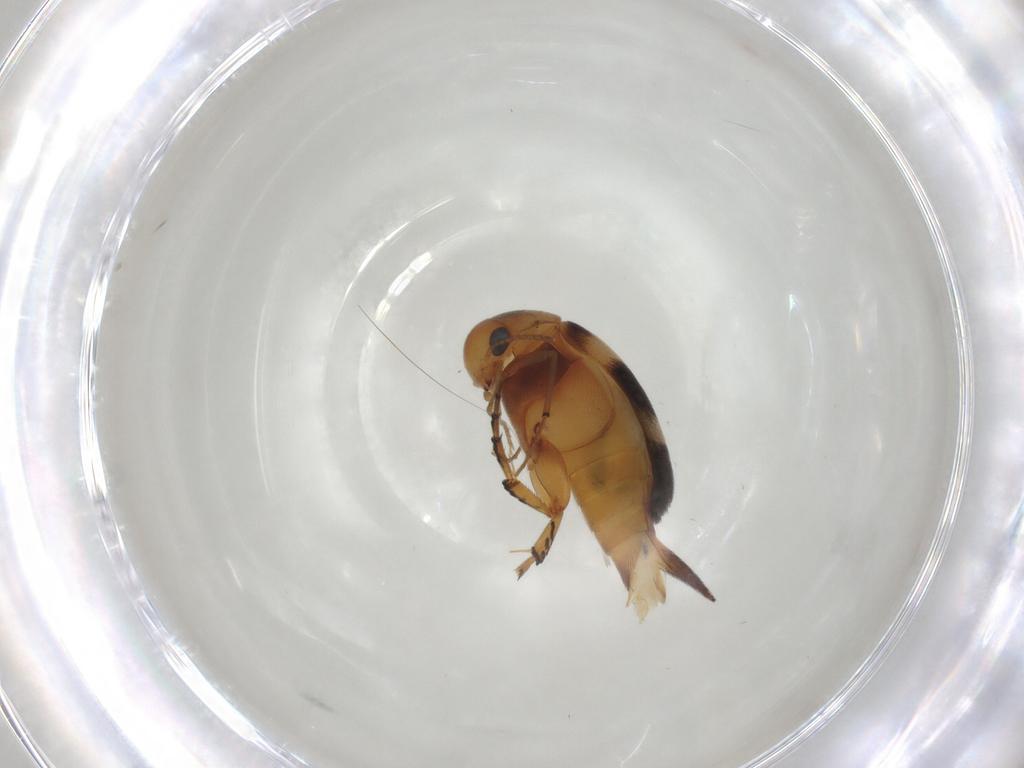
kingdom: Animalia
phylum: Arthropoda
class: Insecta
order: Coleoptera
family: Mordellidae
